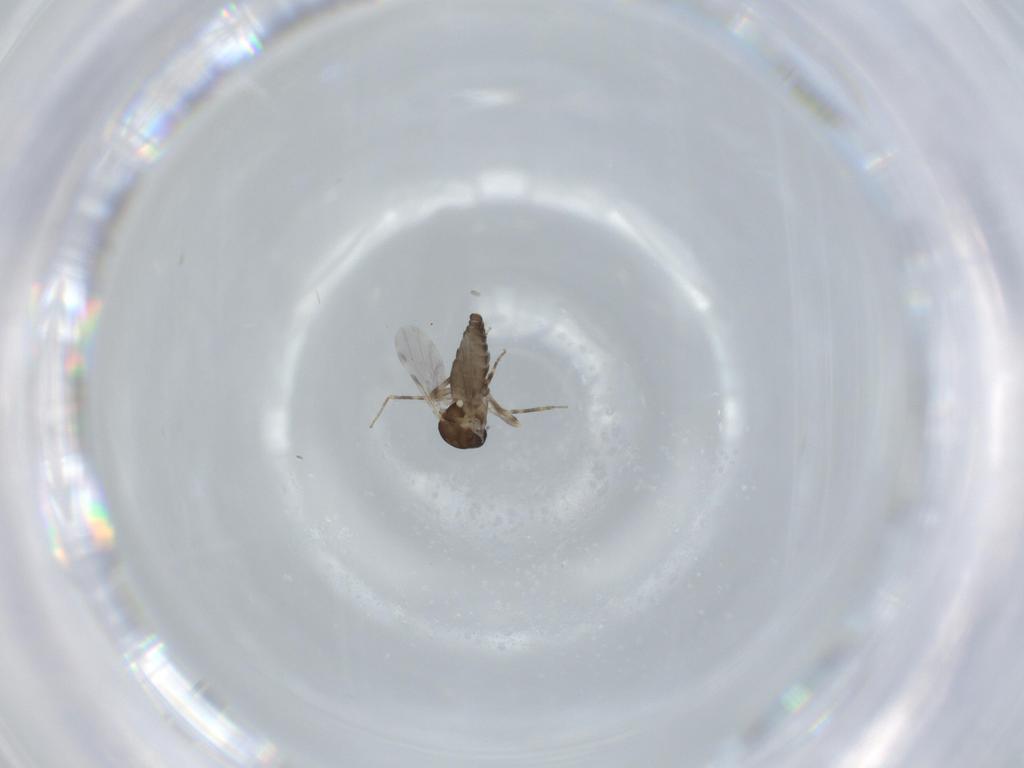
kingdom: Animalia
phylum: Arthropoda
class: Insecta
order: Diptera
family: Ceratopogonidae
